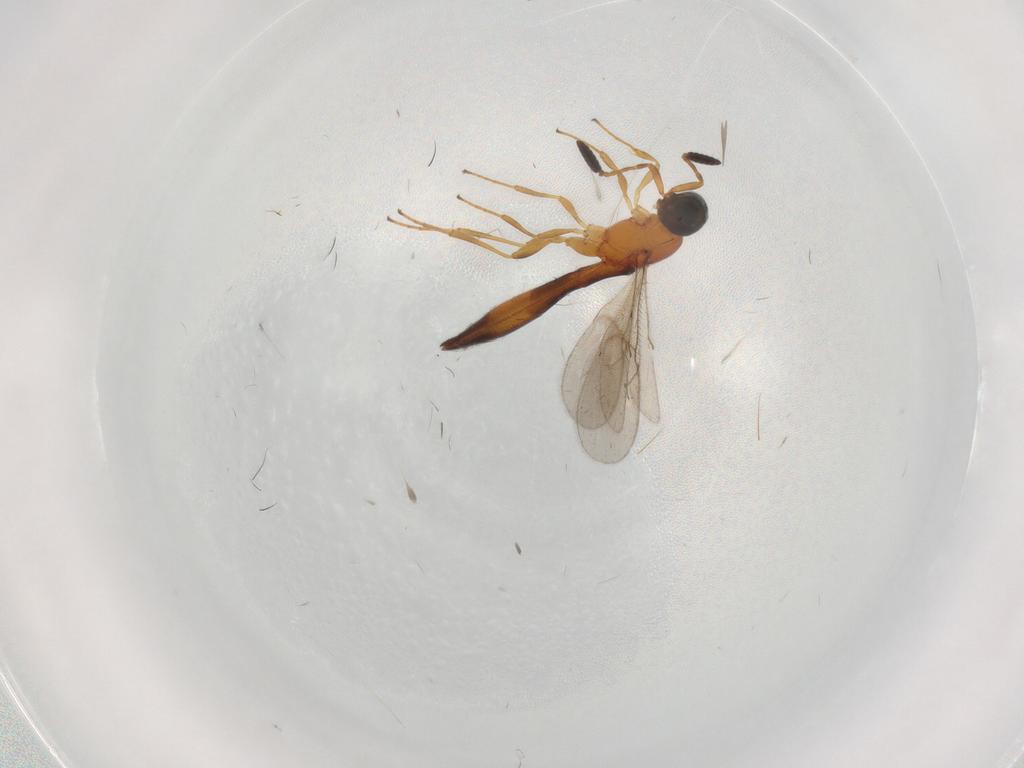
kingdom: Animalia
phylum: Arthropoda
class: Insecta
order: Hymenoptera
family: Scelionidae
